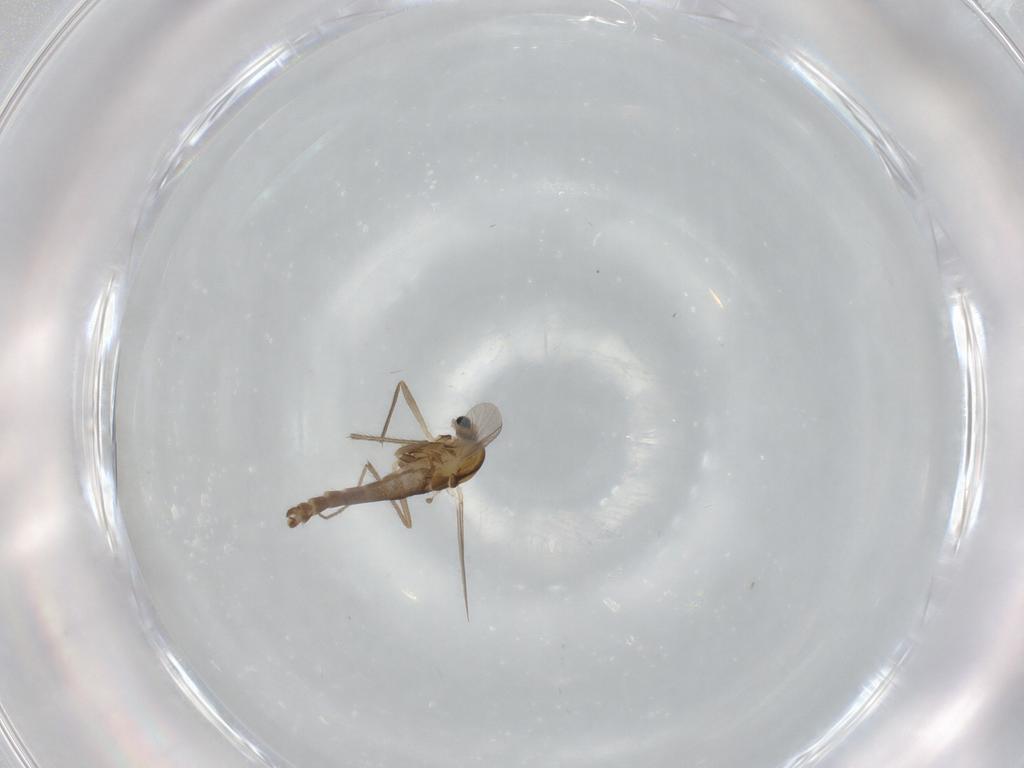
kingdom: Animalia
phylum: Arthropoda
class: Insecta
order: Diptera
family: Chironomidae
